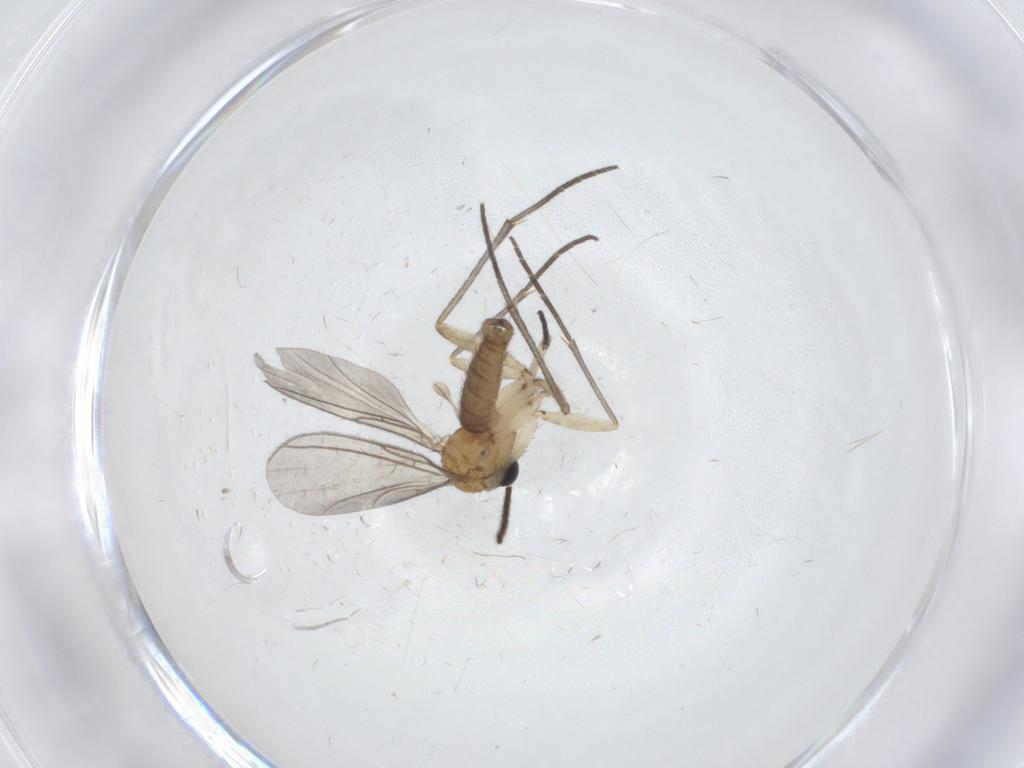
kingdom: Animalia
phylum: Arthropoda
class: Insecta
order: Diptera
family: Sciaridae
